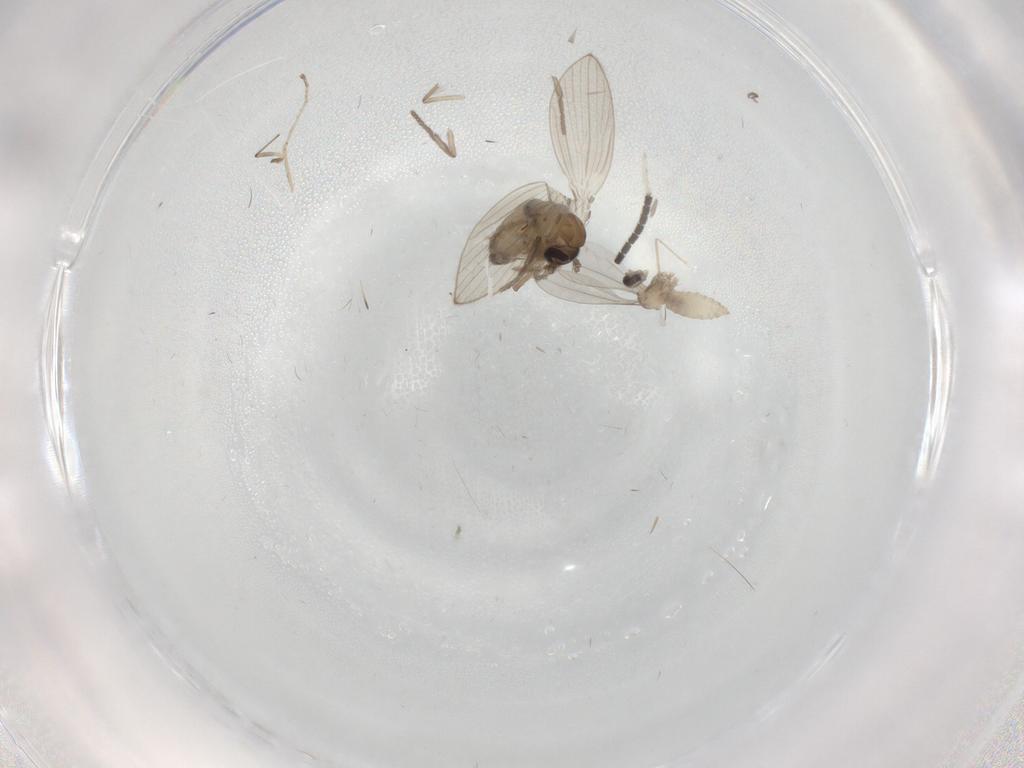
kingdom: Animalia
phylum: Arthropoda
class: Insecta
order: Diptera
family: Psychodidae
